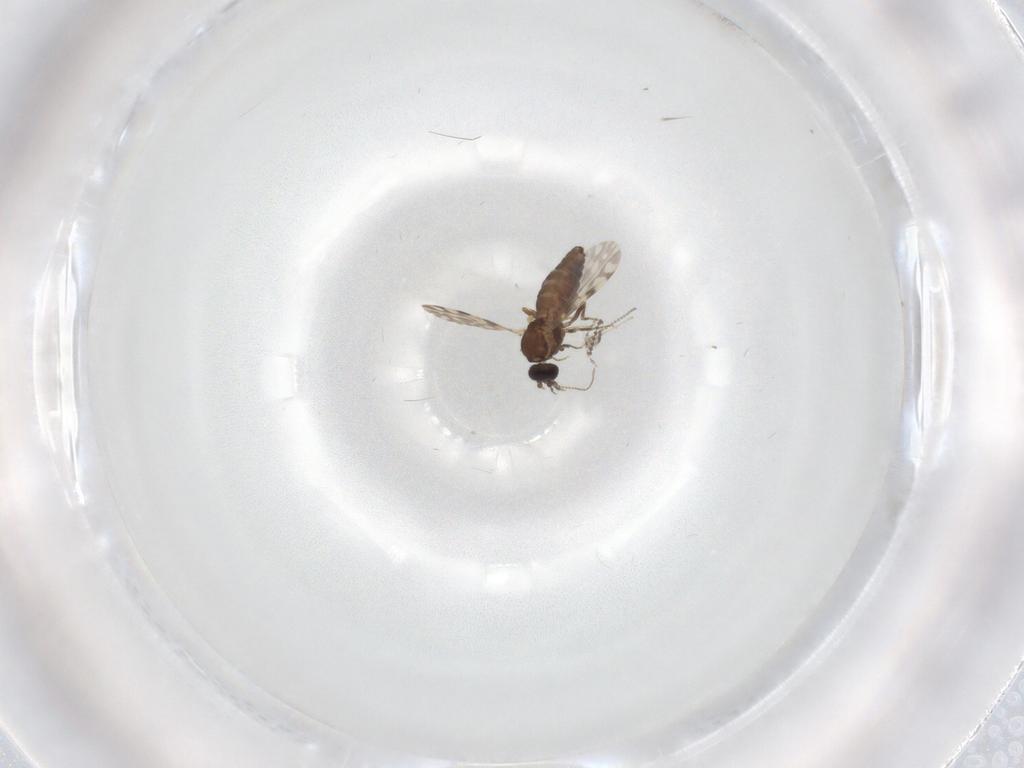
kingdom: Animalia
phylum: Arthropoda
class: Insecta
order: Diptera
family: Ceratopogonidae
